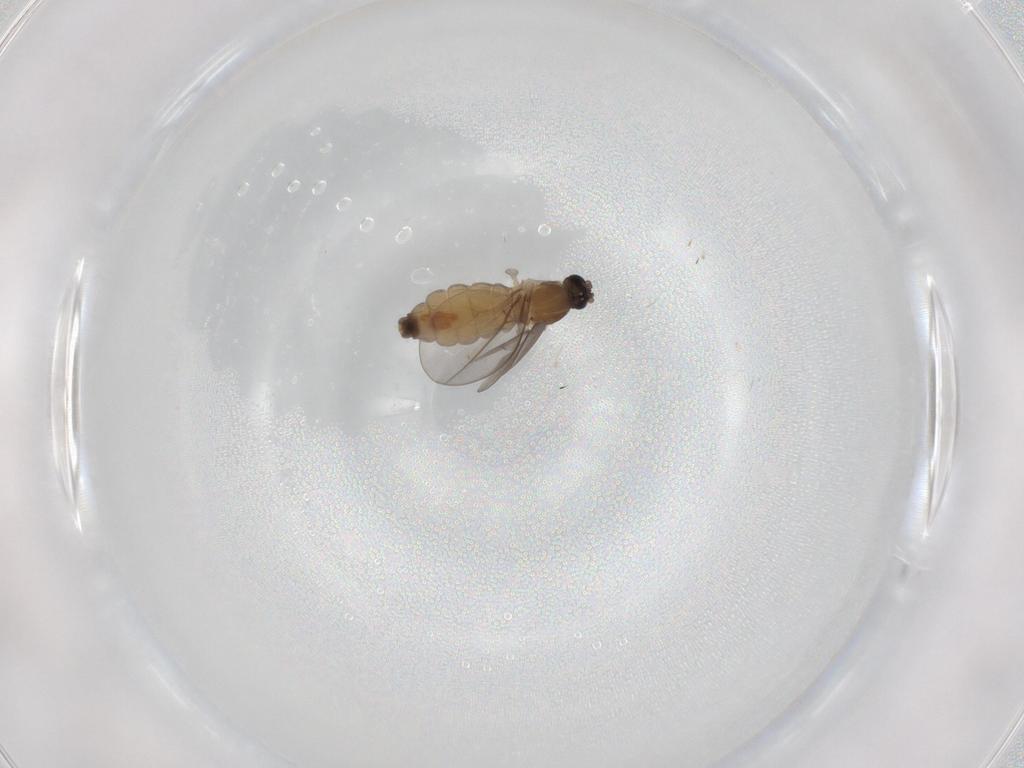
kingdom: Animalia
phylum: Arthropoda
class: Insecta
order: Diptera
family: Cecidomyiidae
